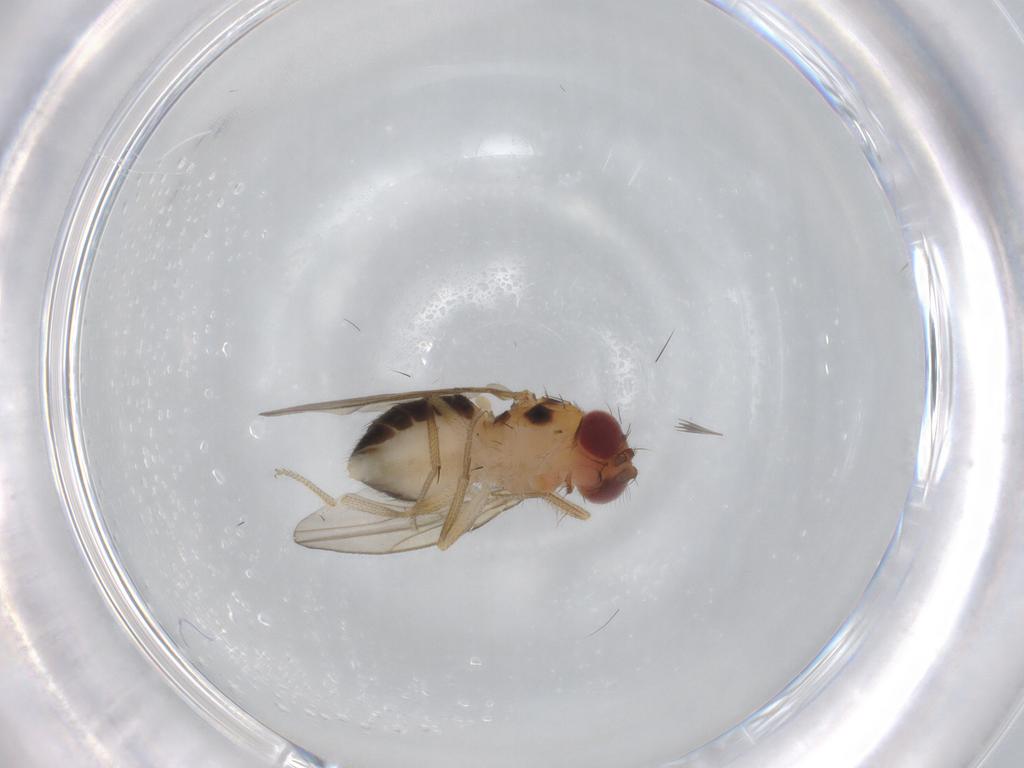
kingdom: Animalia
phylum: Arthropoda
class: Insecta
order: Diptera
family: Drosophilidae
